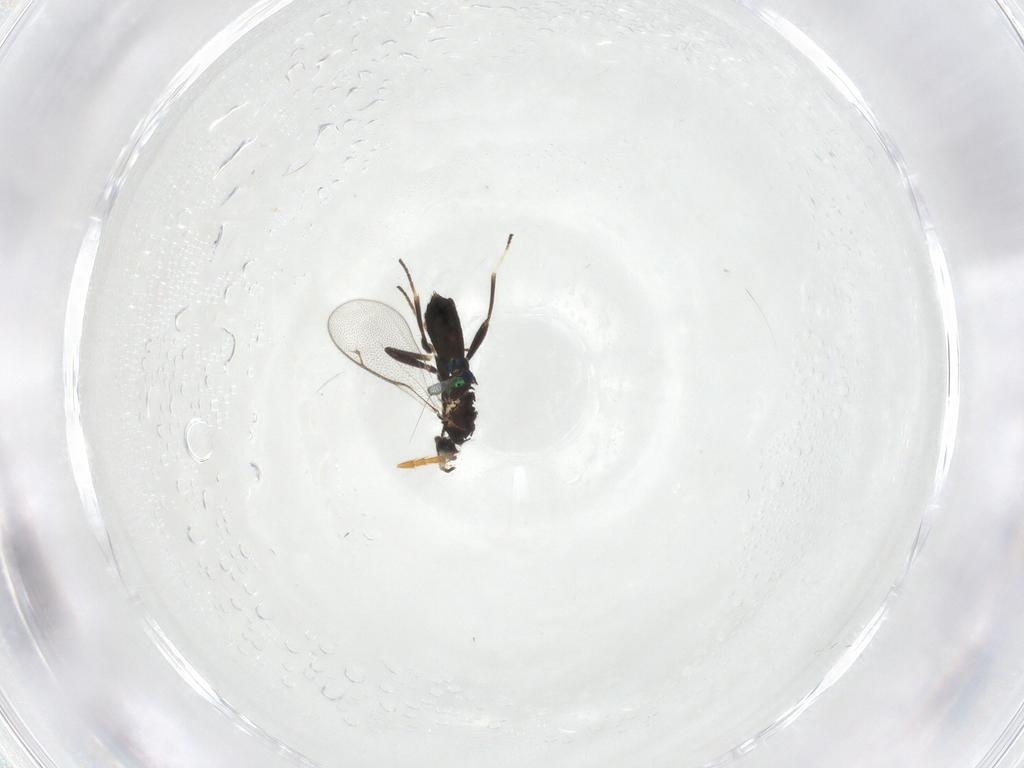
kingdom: Animalia
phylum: Arthropoda
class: Insecta
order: Hymenoptera
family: Formicidae
